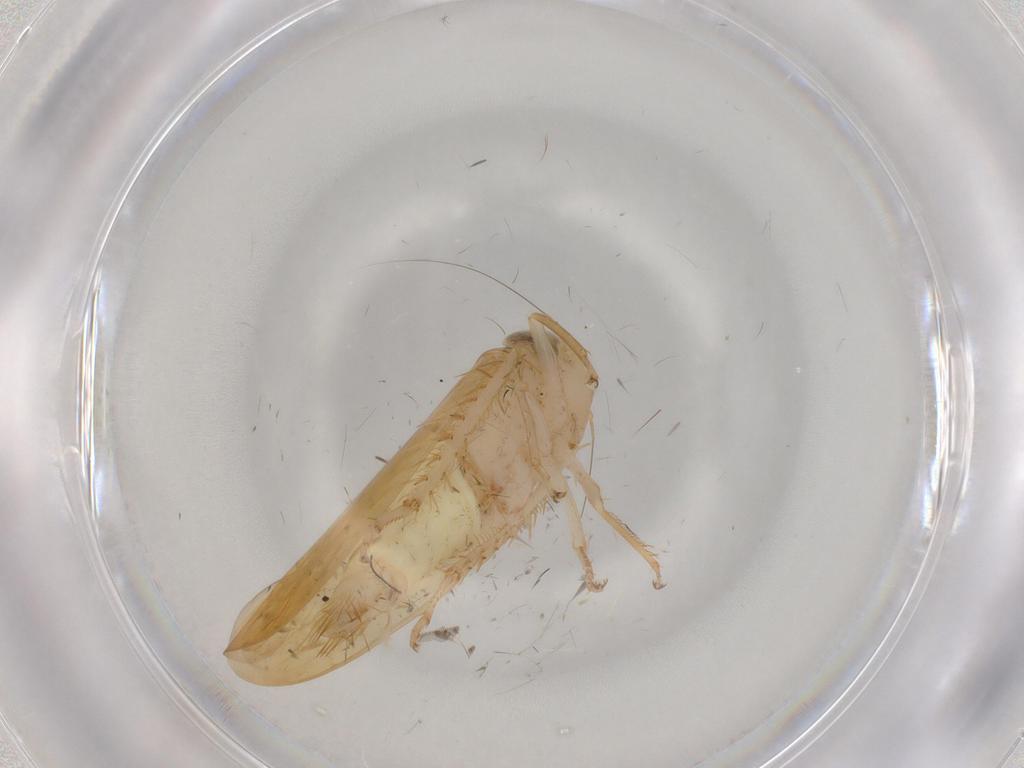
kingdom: Animalia
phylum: Arthropoda
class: Insecta
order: Hemiptera
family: Cicadellidae
